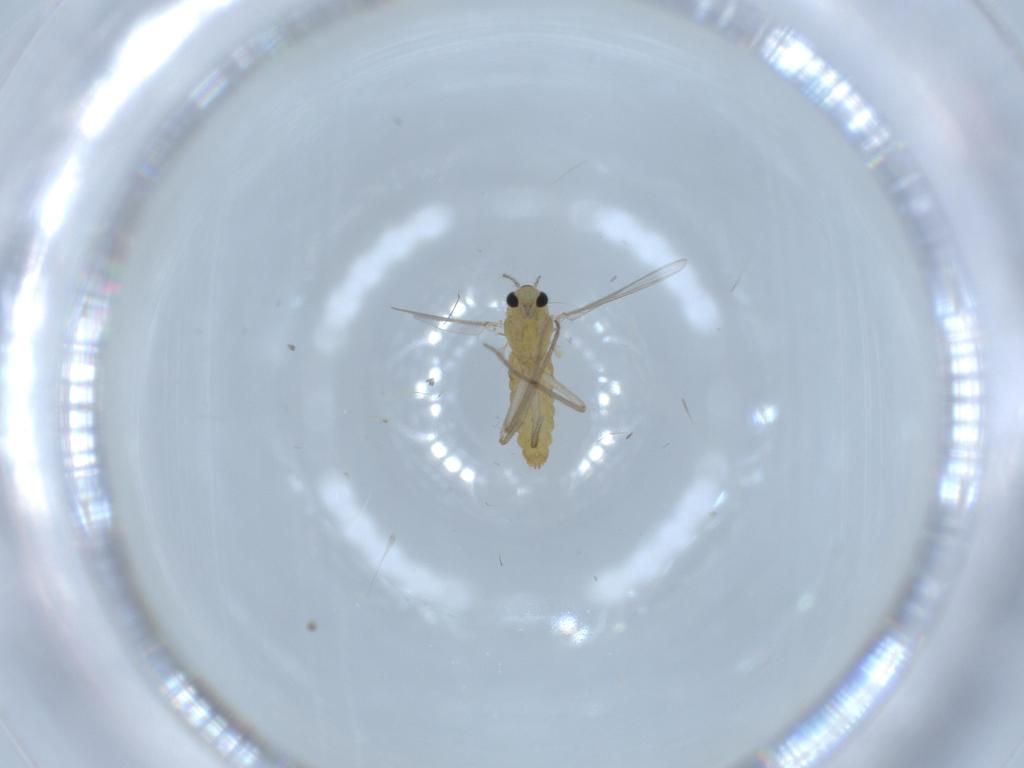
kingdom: Animalia
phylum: Arthropoda
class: Insecta
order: Diptera
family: Chironomidae
